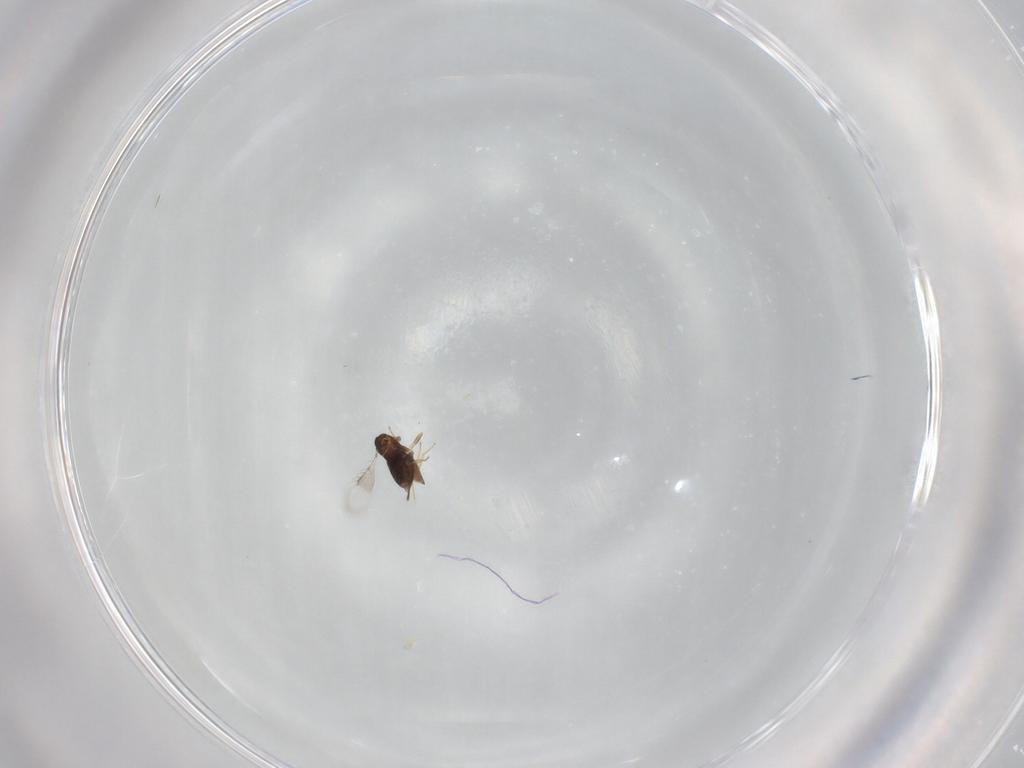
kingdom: Animalia
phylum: Arthropoda
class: Insecta
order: Hymenoptera
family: Azotidae
